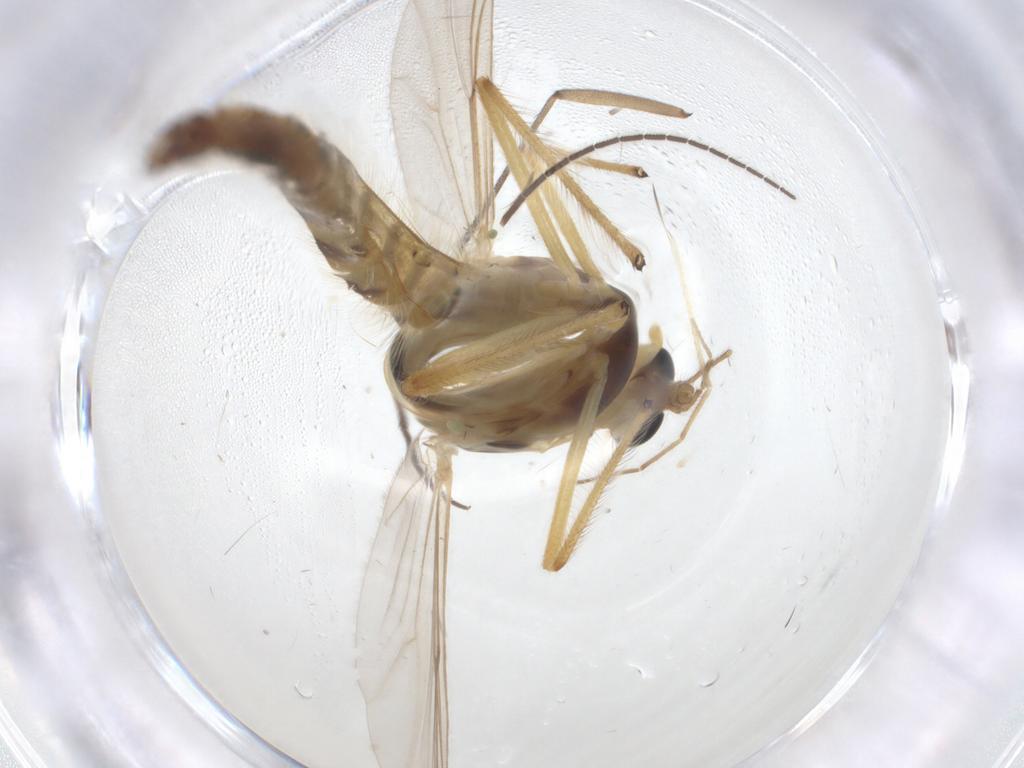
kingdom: Animalia
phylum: Arthropoda
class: Insecta
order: Diptera
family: Chironomidae
